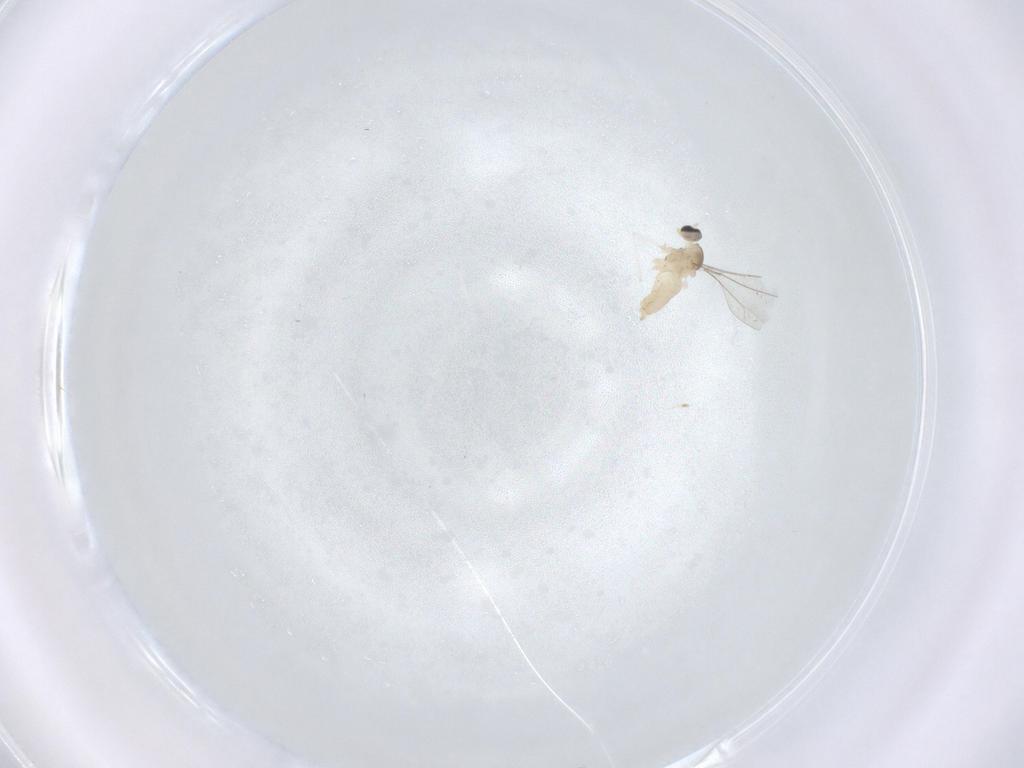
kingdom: Animalia
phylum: Arthropoda
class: Insecta
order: Diptera
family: Cecidomyiidae
